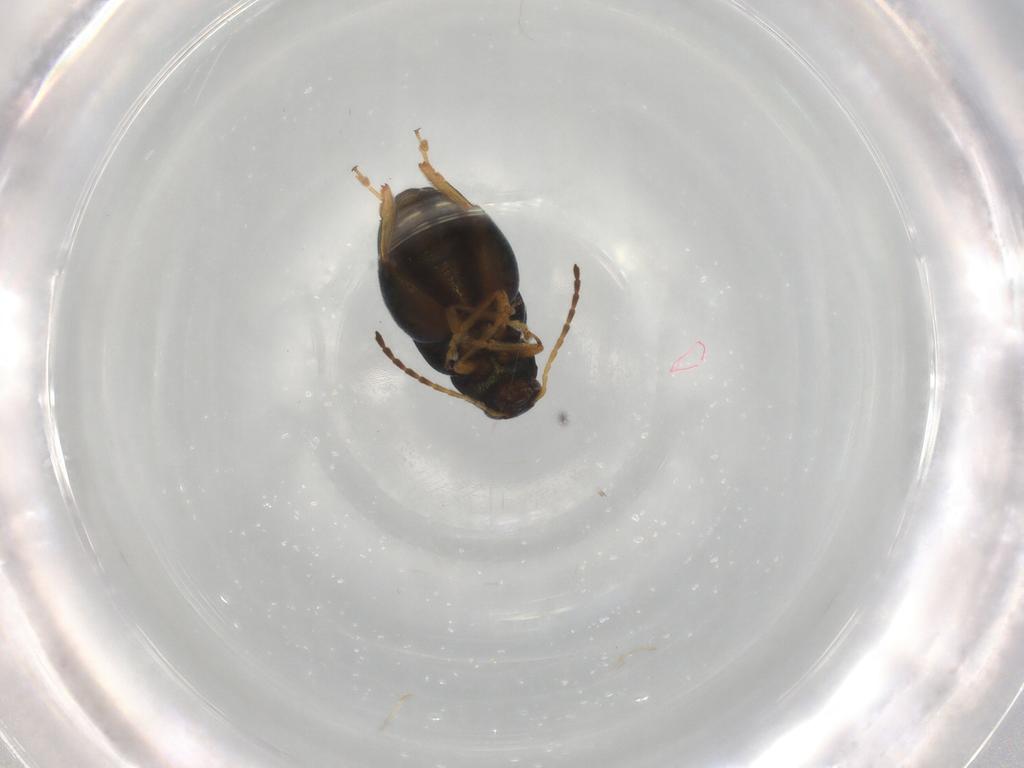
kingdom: Animalia
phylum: Arthropoda
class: Insecta
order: Coleoptera
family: Chrysomelidae
